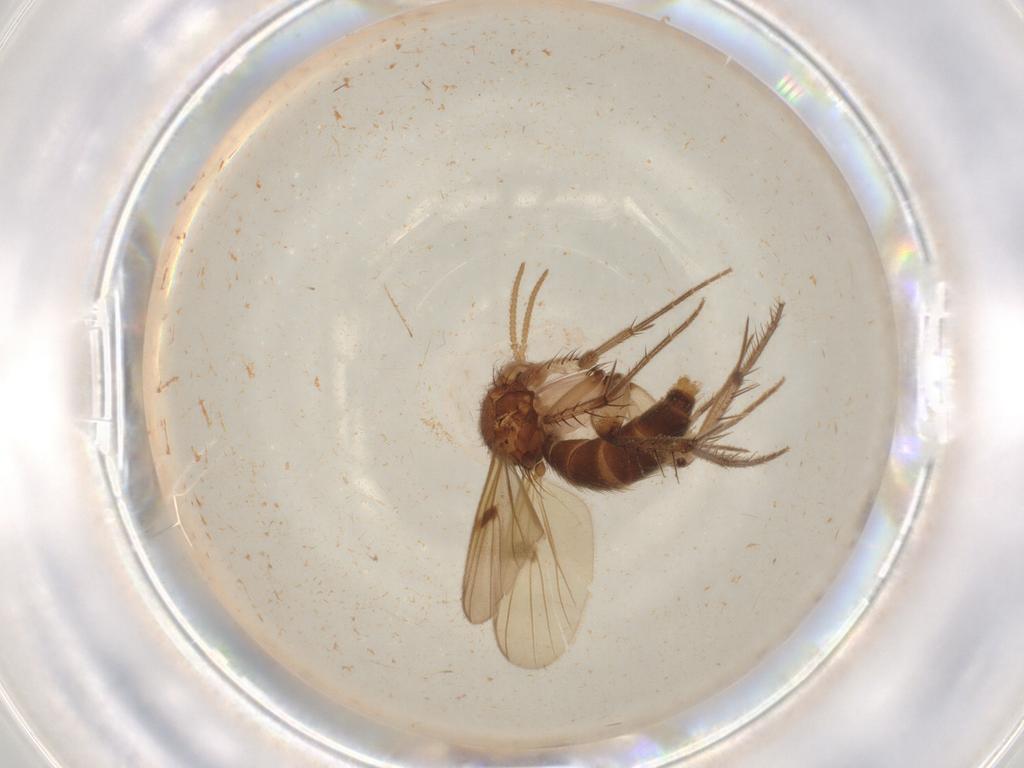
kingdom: Animalia
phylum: Arthropoda
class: Insecta
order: Diptera
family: Mycetophilidae
